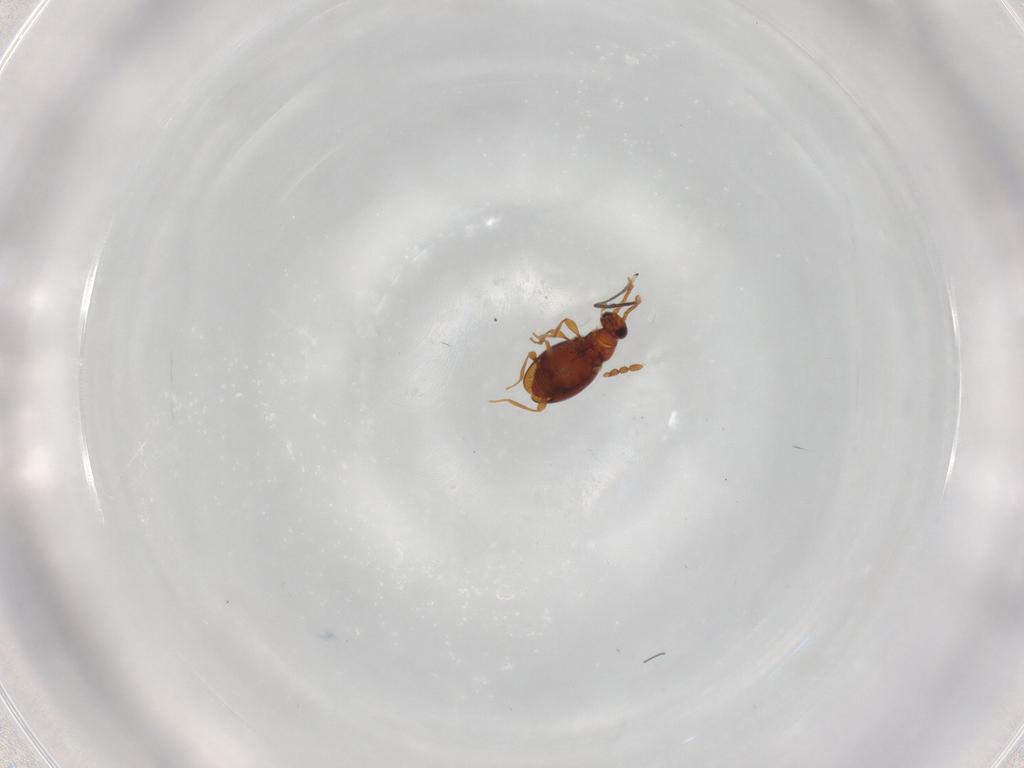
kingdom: Animalia
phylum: Arthropoda
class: Insecta
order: Coleoptera
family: Staphylinidae
